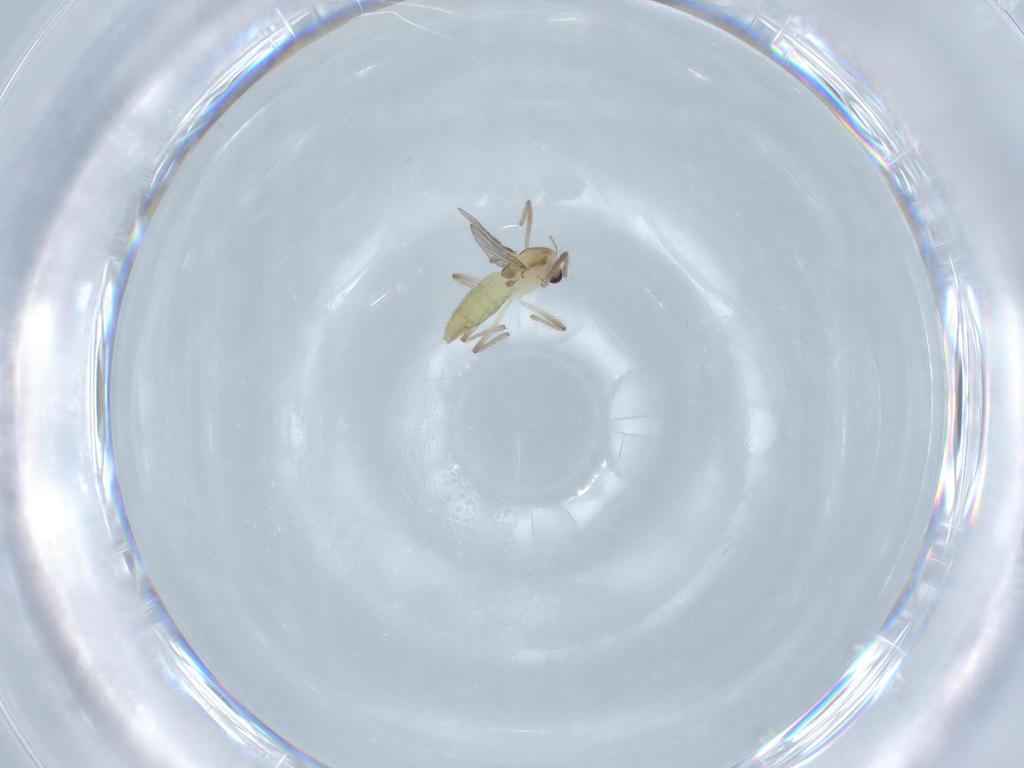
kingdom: Animalia
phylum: Arthropoda
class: Insecta
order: Diptera
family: Chironomidae
